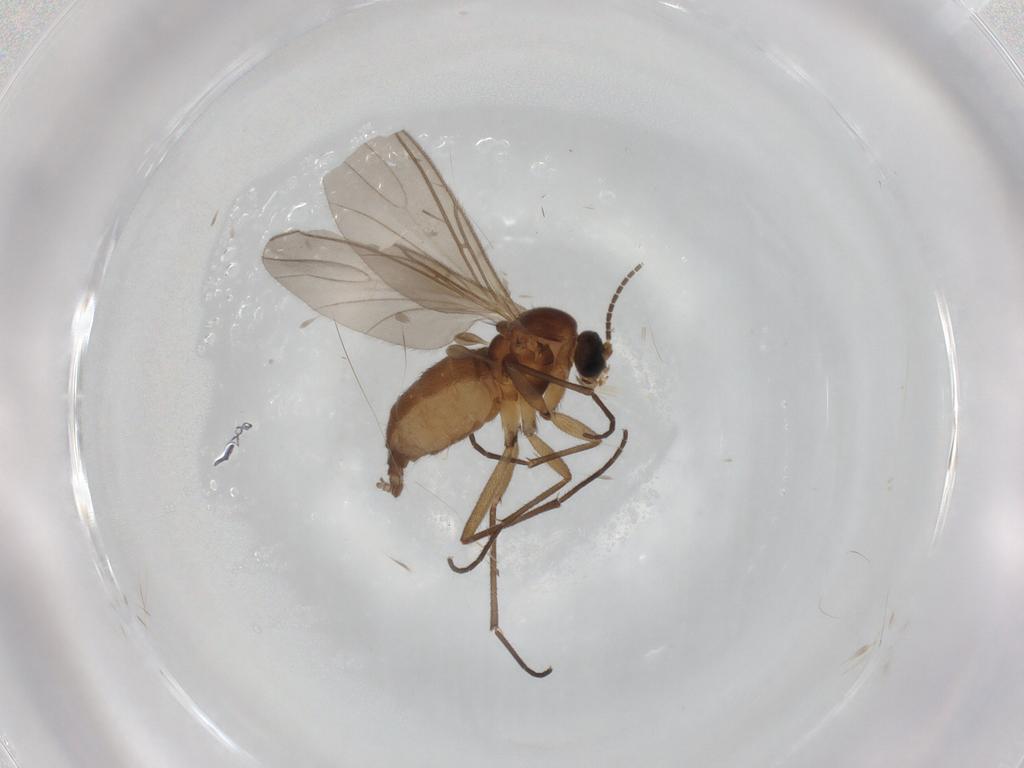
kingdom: Animalia
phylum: Arthropoda
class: Insecta
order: Diptera
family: Sciaridae
